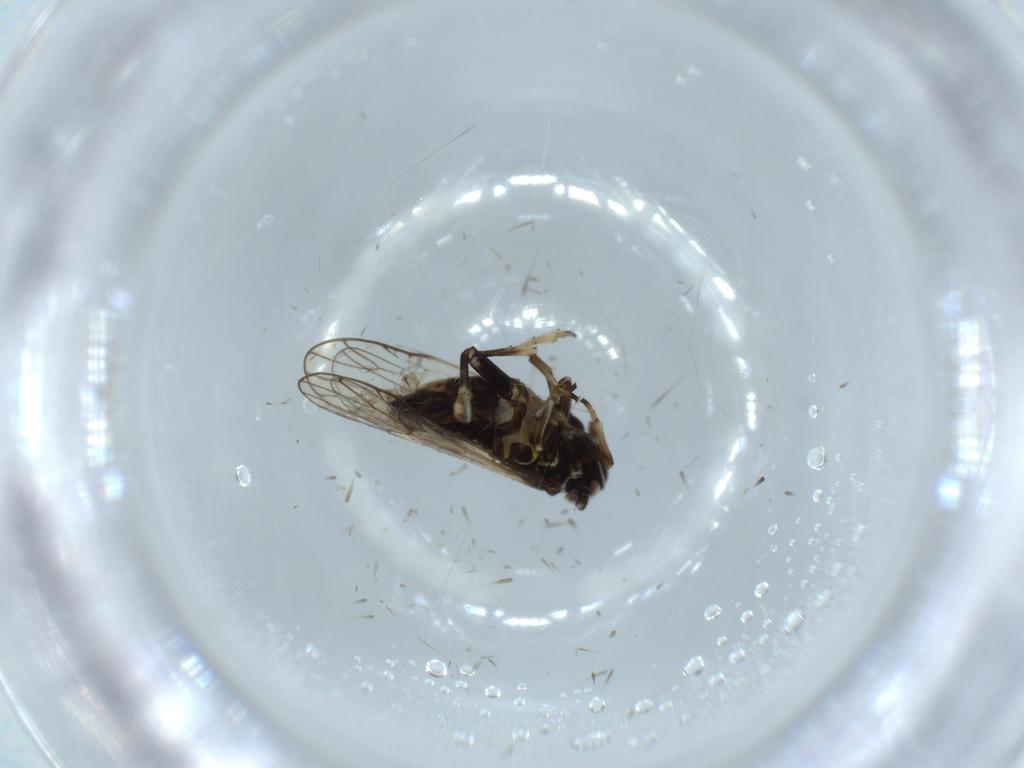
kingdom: Animalia
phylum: Arthropoda
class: Insecta
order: Hemiptera
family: Delphacidae
